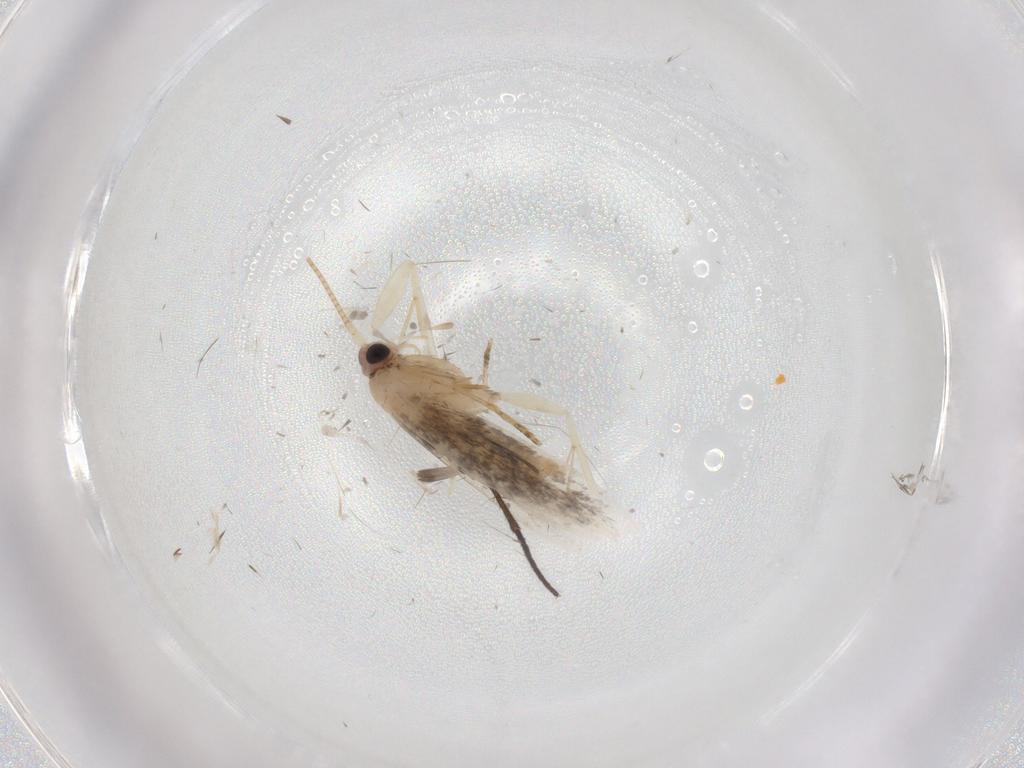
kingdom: Animalia
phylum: Arthropoda
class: Insecta
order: Lepidoptera
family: Tineidae
